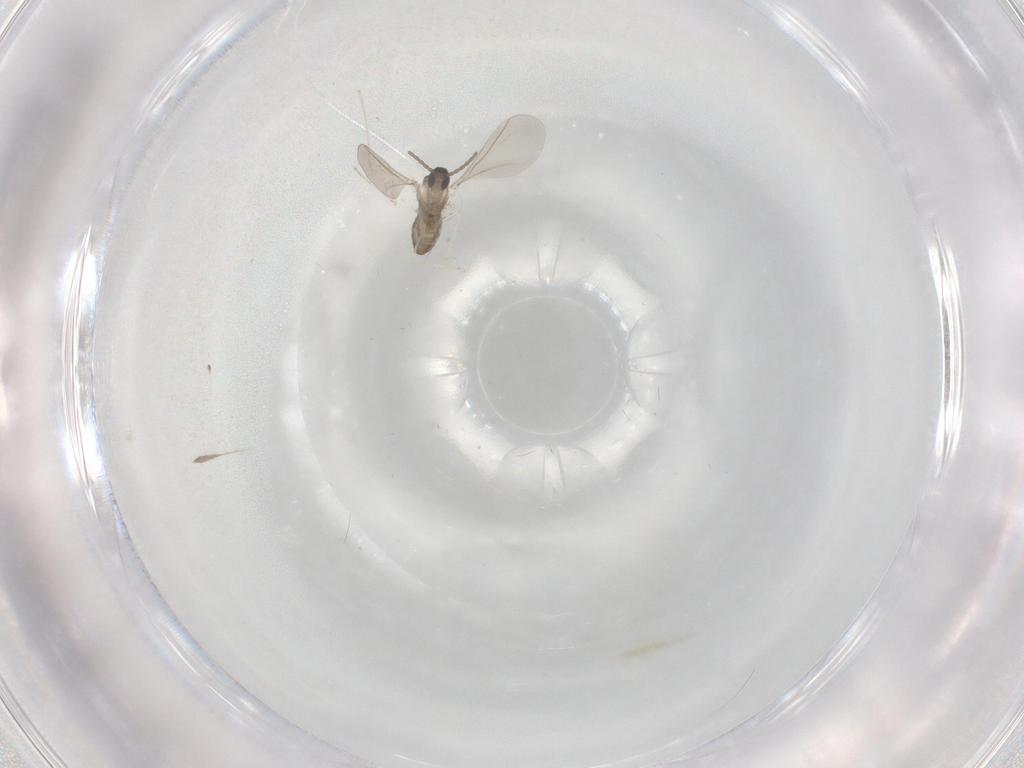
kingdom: Animalia
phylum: Arthropoda
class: Insecta
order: Diptera
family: Cecidomyiidae
